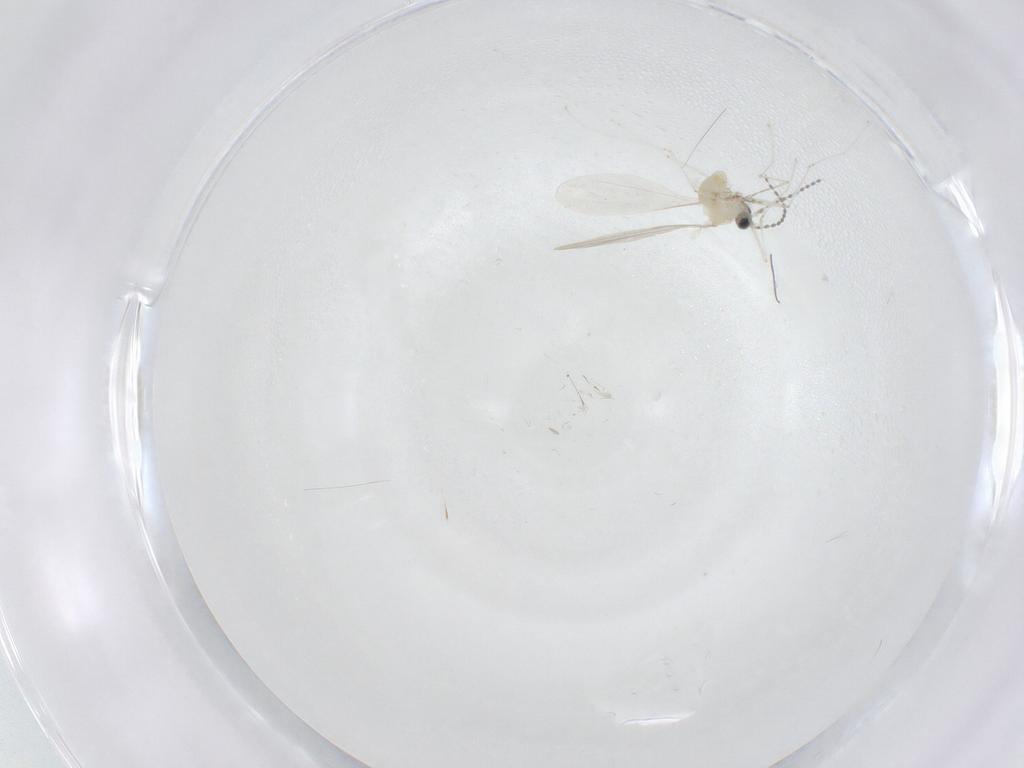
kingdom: Animalia
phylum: Arthropoda
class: Insecta
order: Diptera
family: Cecidomyiidae
